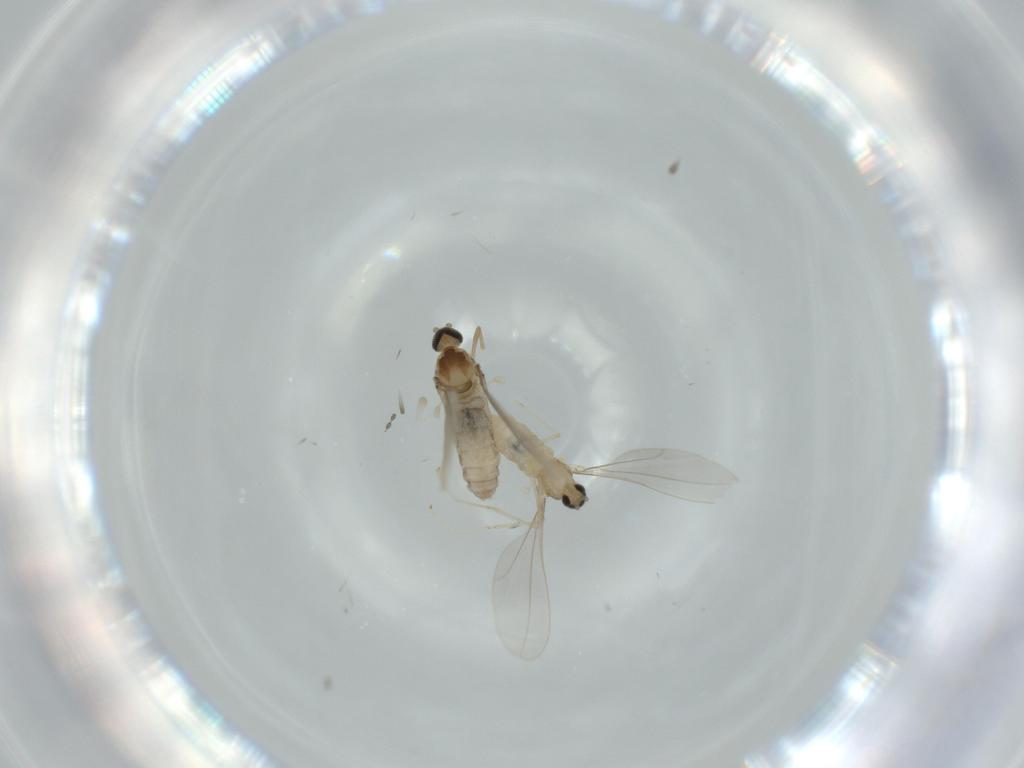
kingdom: Animalia
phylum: Arthropoda
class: Insecta
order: Diptera
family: Cecidomyiidae
